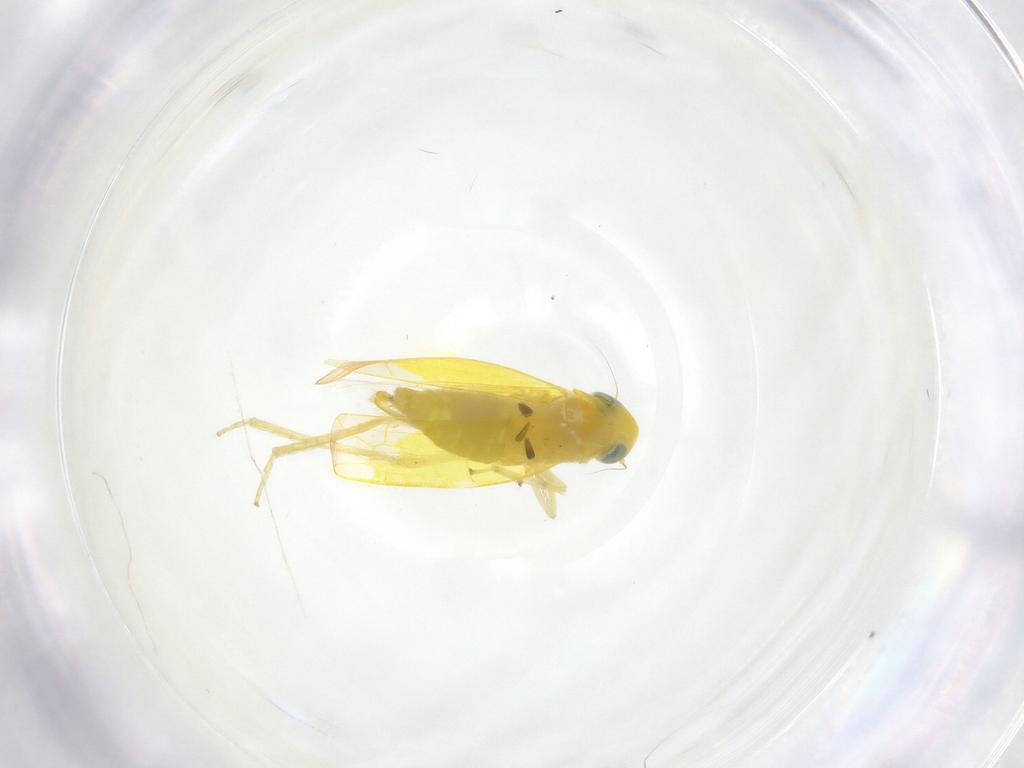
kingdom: Animalia
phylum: Arthropoda
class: Insecta
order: Hemiptera
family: Cicadellidae
